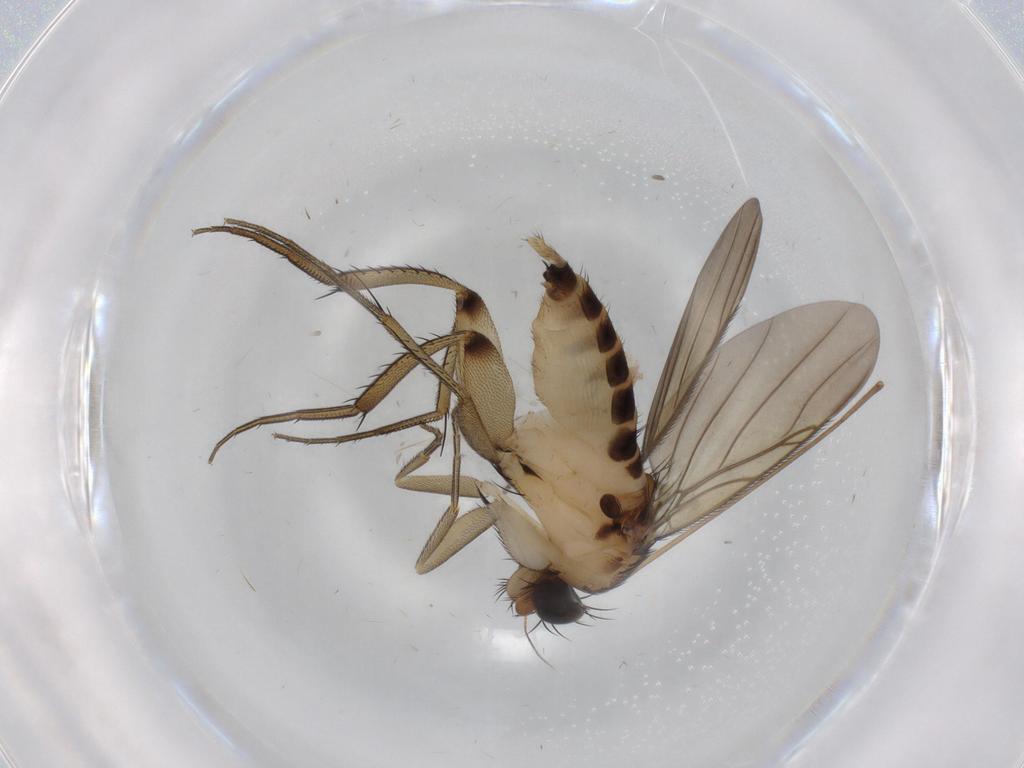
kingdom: Animalia
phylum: Arthropoda
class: Insecta
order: Diptera
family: Chironomidae
